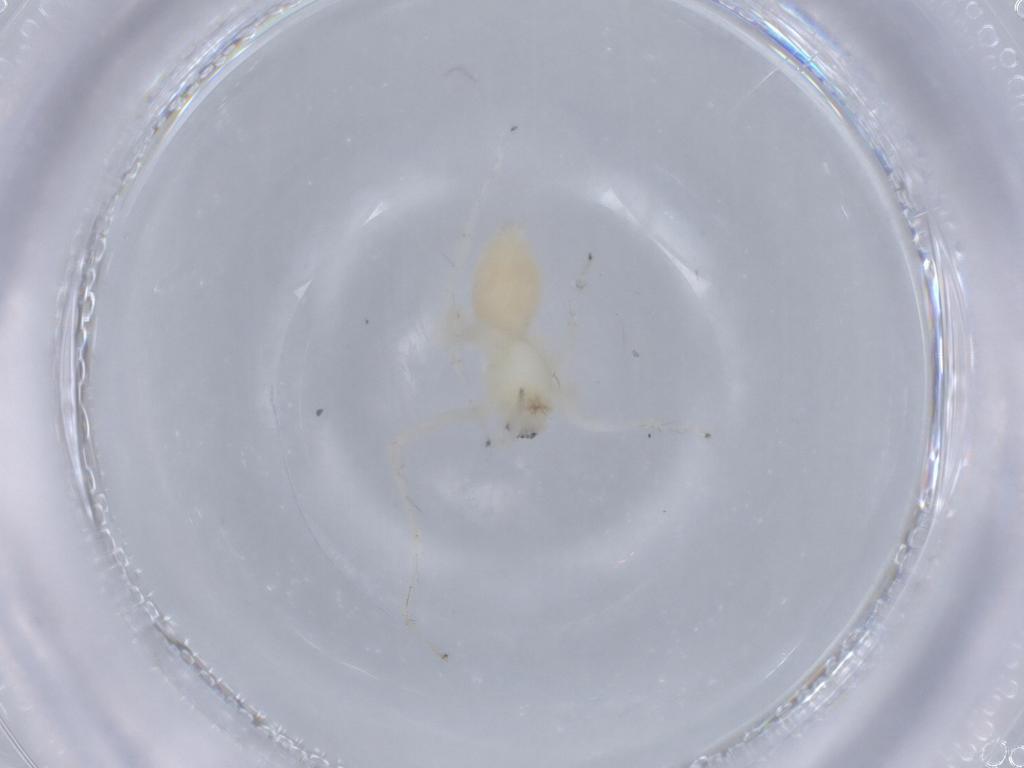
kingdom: Animalia
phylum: Arthropoda
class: Arachnida
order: Araneae
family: Anyphaenidae
